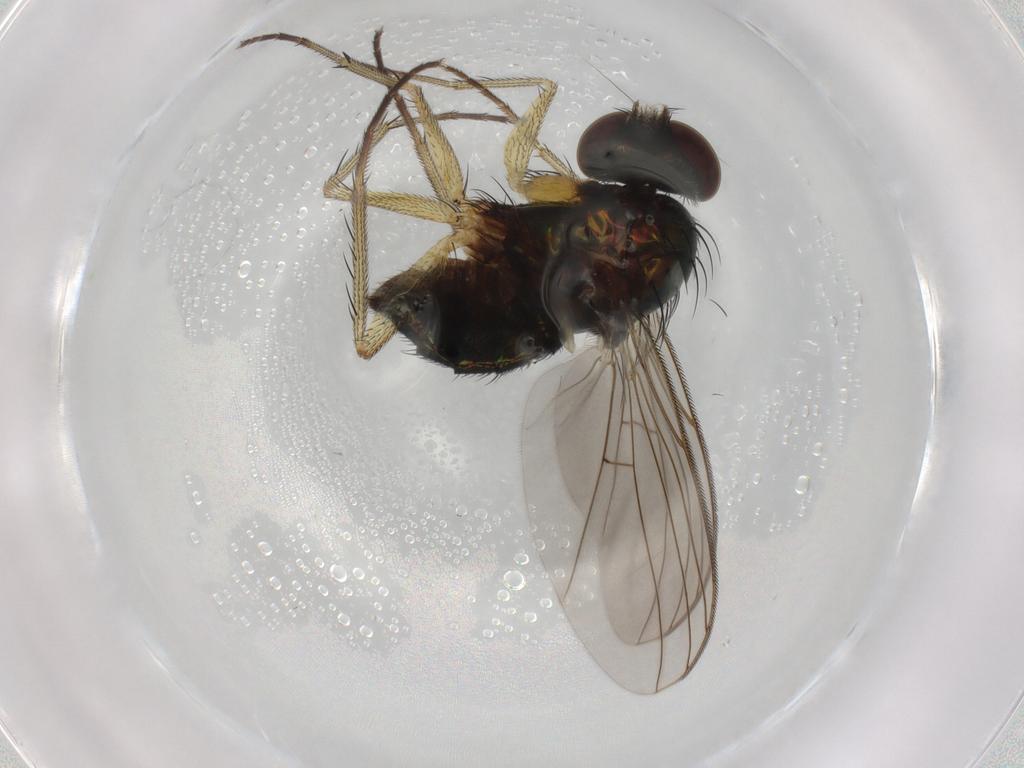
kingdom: Animalia
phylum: Arthropoda
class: Insecta
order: Diptera
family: Dolichopodidae
